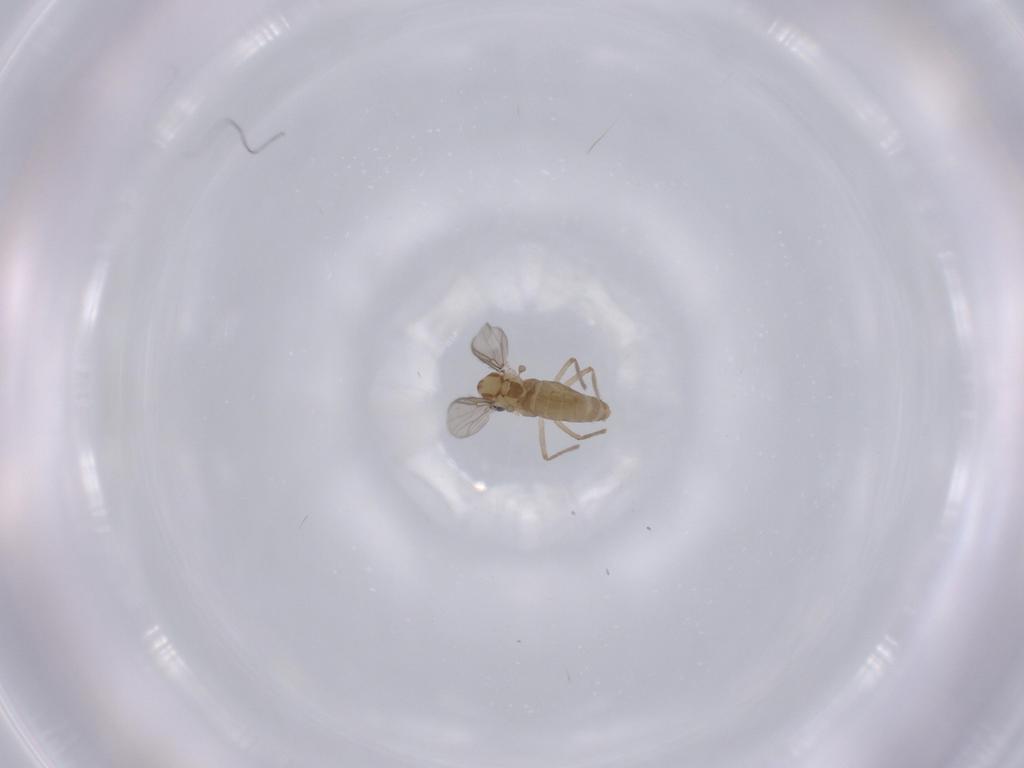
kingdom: Animalia
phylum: Arthropoda
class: Insecta
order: Diptera
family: Chironomidae
